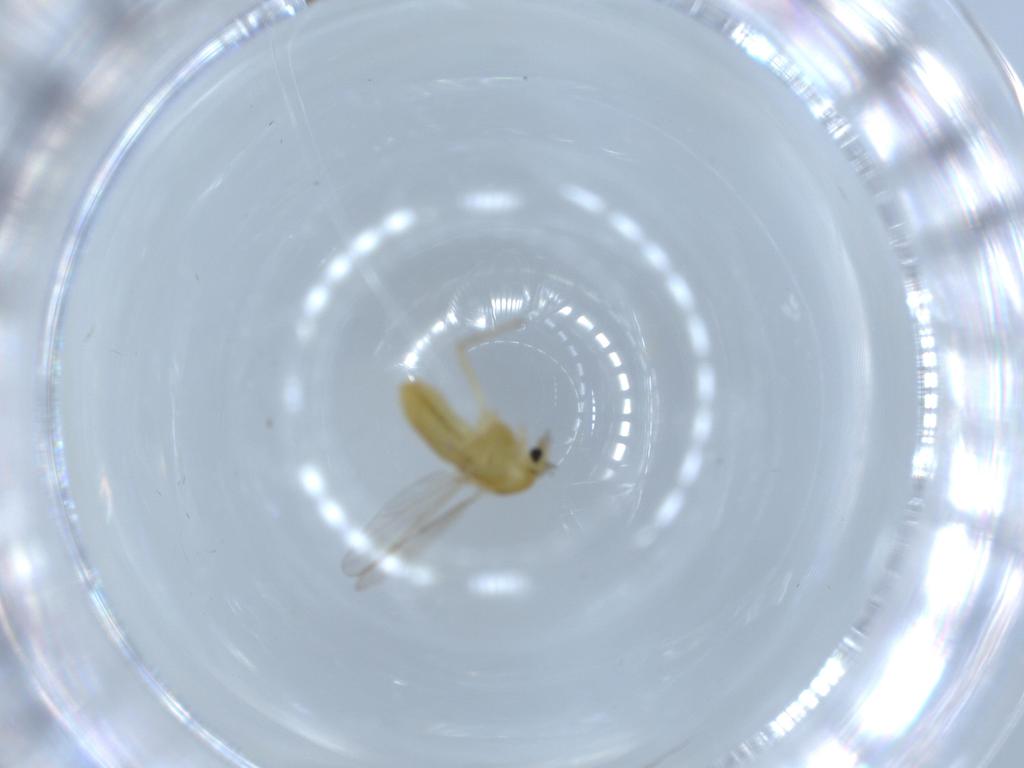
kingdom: Animalia
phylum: Arthropoda
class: Insecta
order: Diptera
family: Chironomidae
